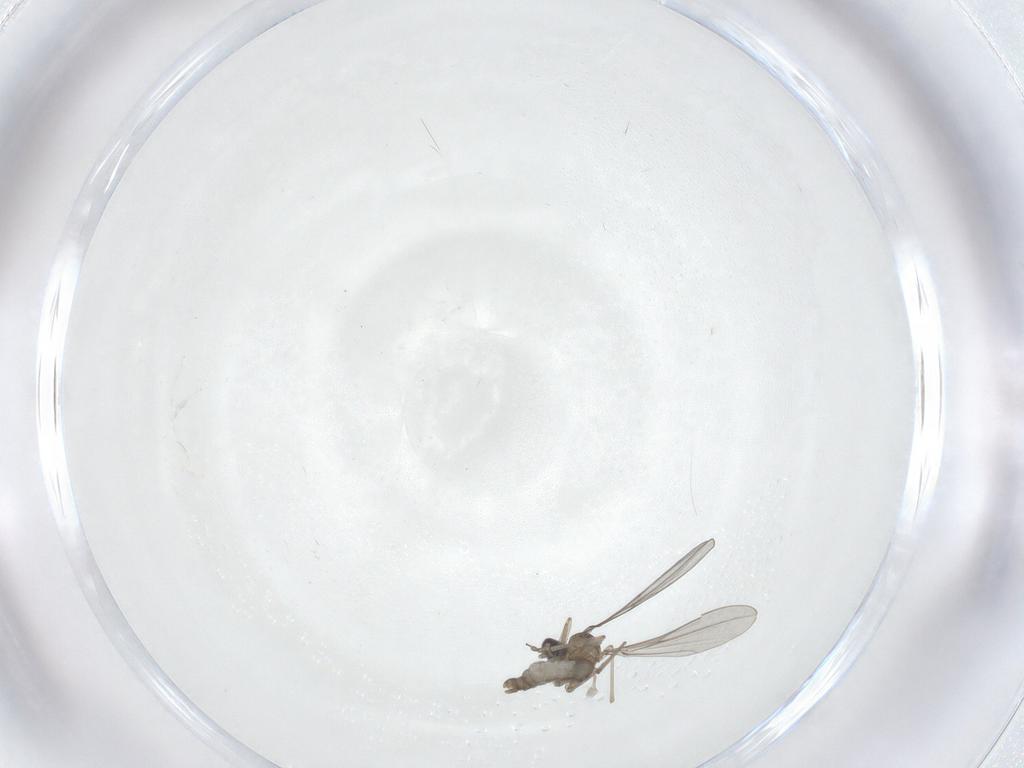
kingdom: Animalia
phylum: Arthropoda
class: Insecta
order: Diptera
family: Cecidomyiidae
